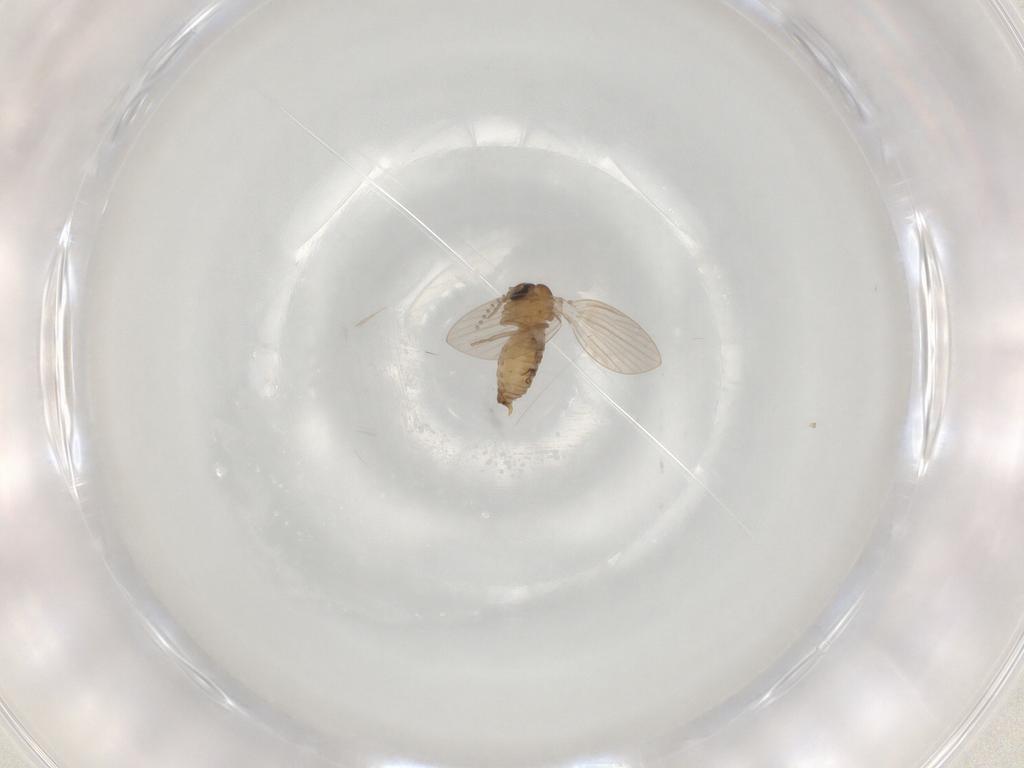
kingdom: Animalia
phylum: Arthropoda
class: Insecta
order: Diptera
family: Psychodidae
